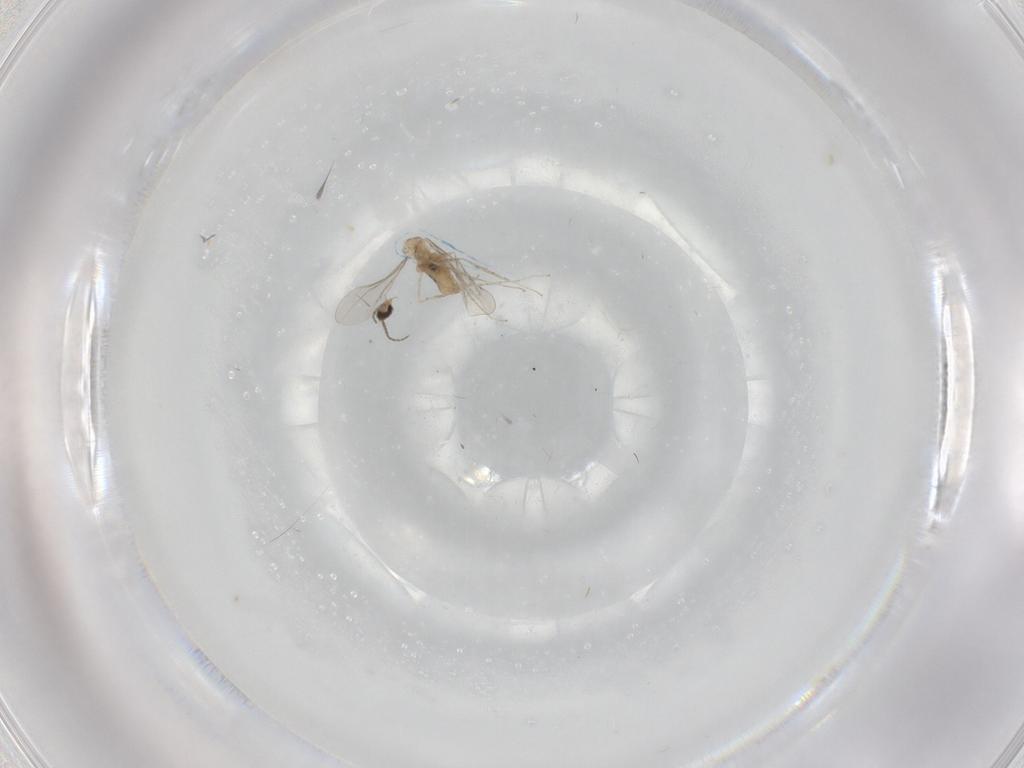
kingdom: Animalia
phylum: Arthropoda
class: Insecta
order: Diptera
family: Cecidomyiidae
